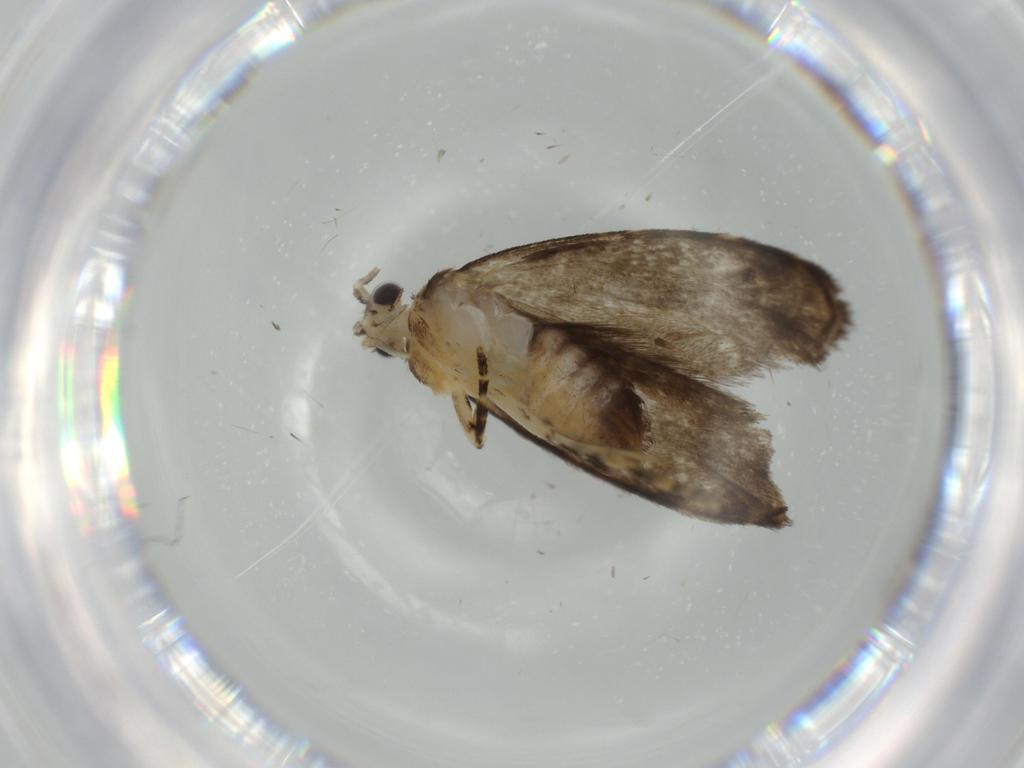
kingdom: Animalia
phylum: Arthropoda
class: Insecta
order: Lepidoptera
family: Tineidae
